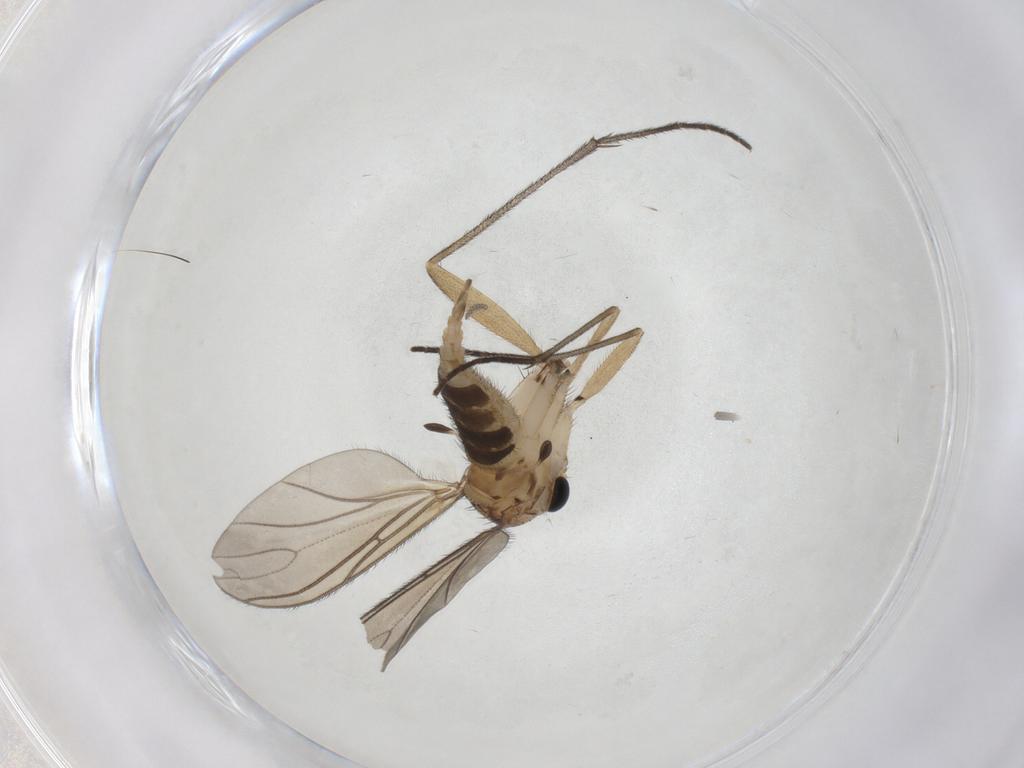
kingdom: Animalia
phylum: Arthropoda
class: Insecta
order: Diptera
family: Sciaridae
